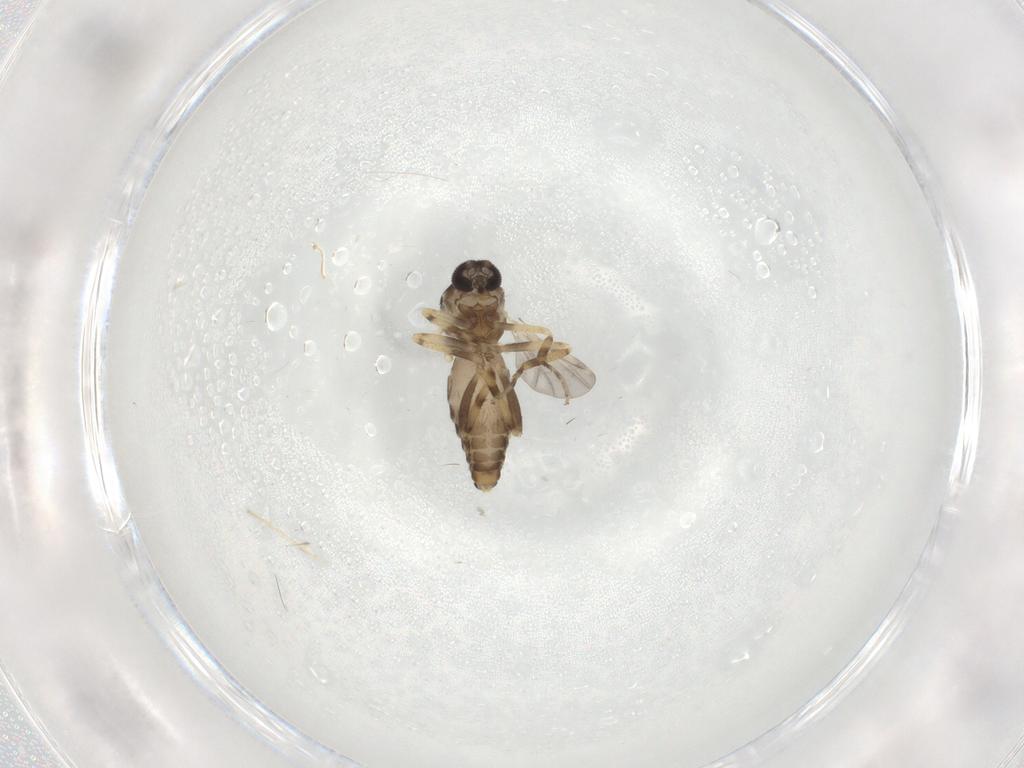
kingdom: Animalia
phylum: Arthropoda
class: Insecta
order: Diptera
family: Ceratopogonidae
